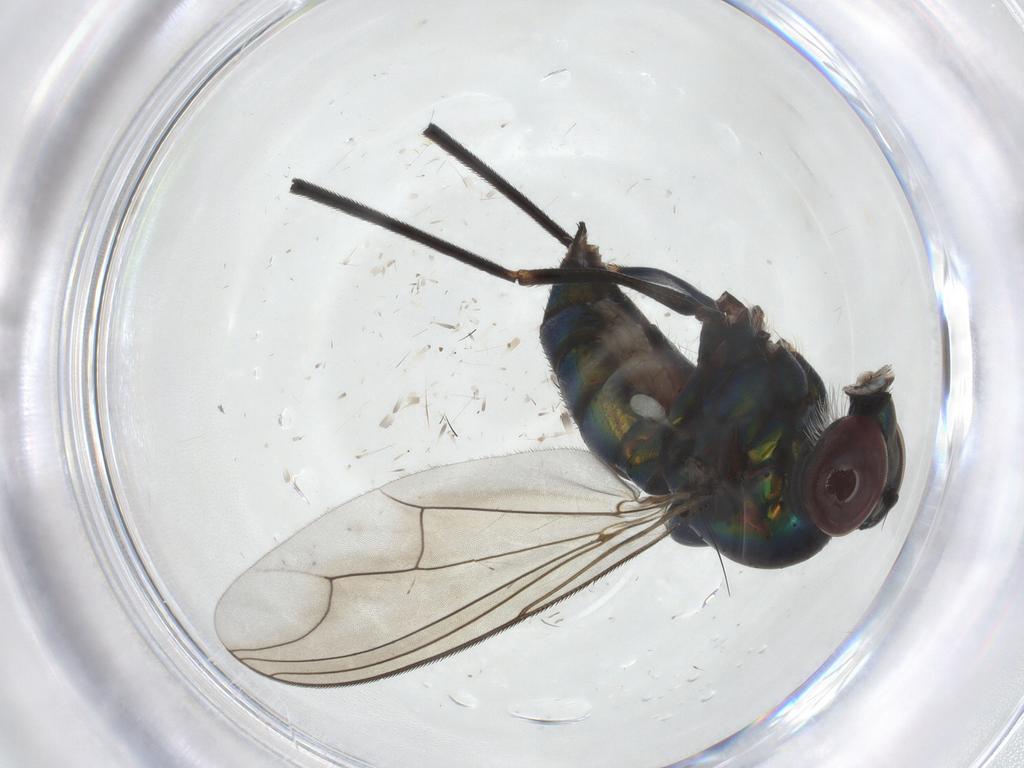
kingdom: Animalia
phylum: Arthropoda
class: Insecta
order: Diptera
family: Dolichopodidae
